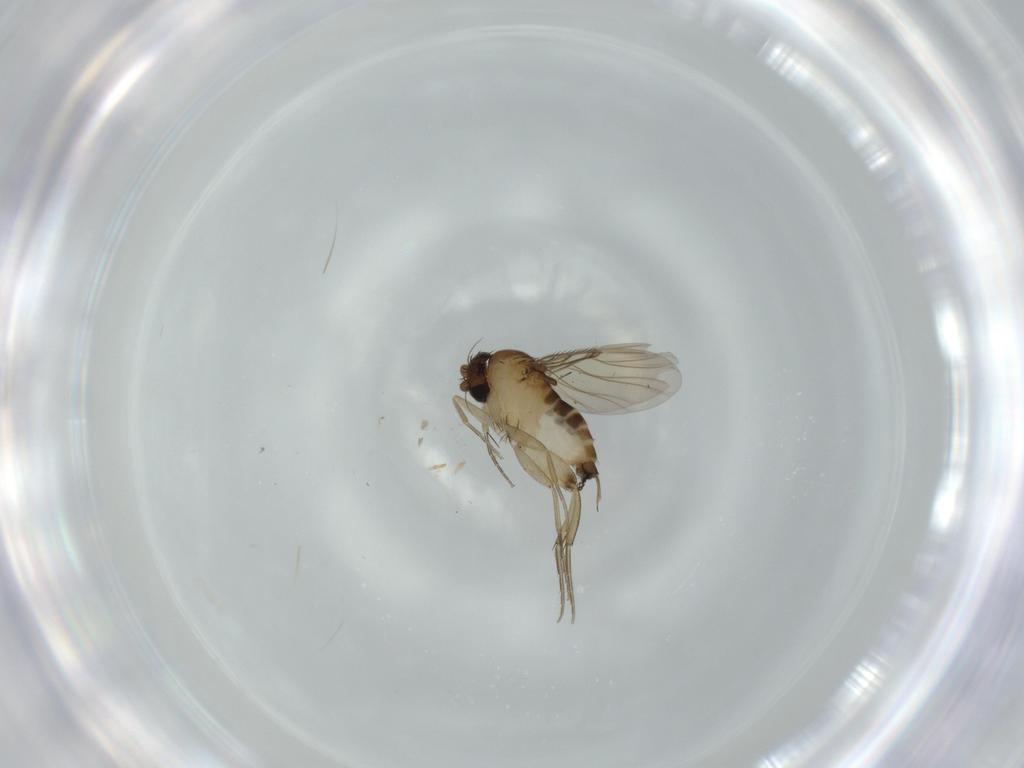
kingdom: Animalia
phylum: Arthropoda
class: Insecta
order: Diptera
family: Phoridae
